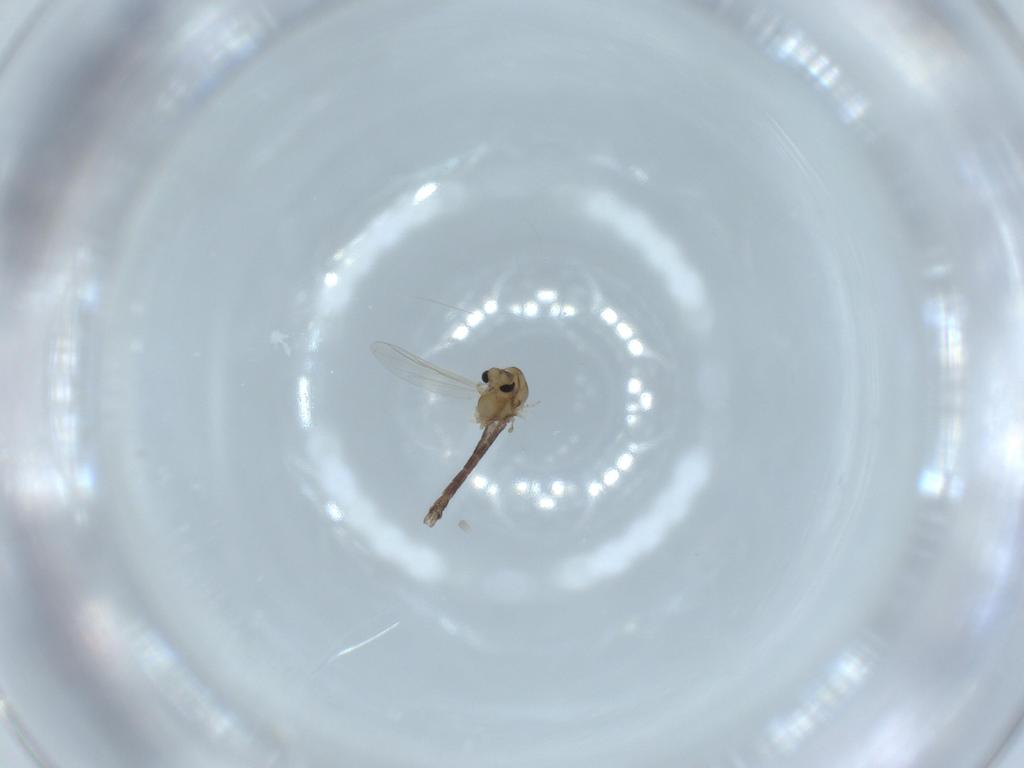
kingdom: Animalia
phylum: Arthropoda
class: Insecta
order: Diptera
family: Chironomidae
